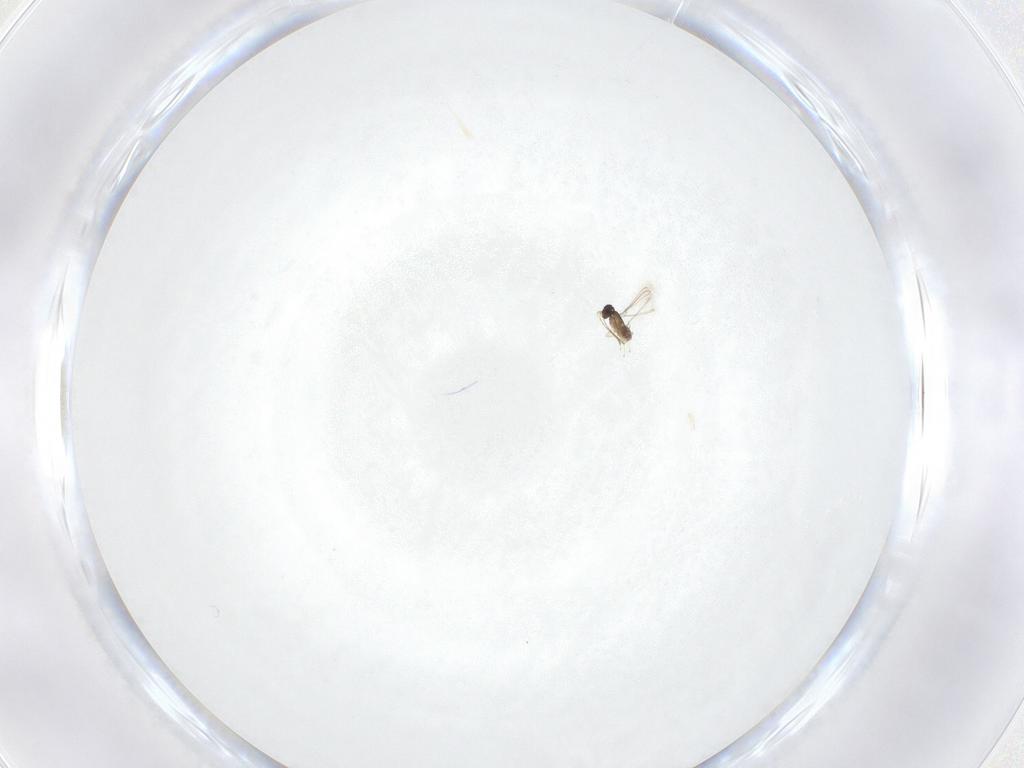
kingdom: Animalia
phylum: Arthropoda
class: Insecta
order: Hymenoptera
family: Mymaridae
